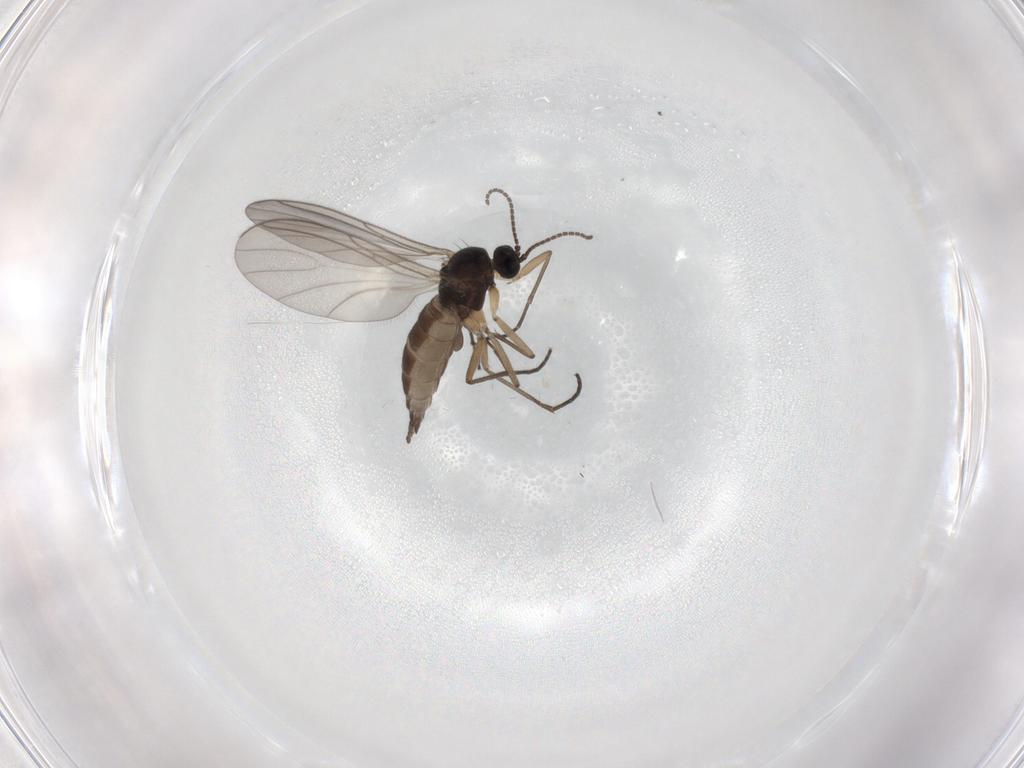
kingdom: Animalia
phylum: Arthropoda
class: Insecta
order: Diptera
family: Sciaridae
